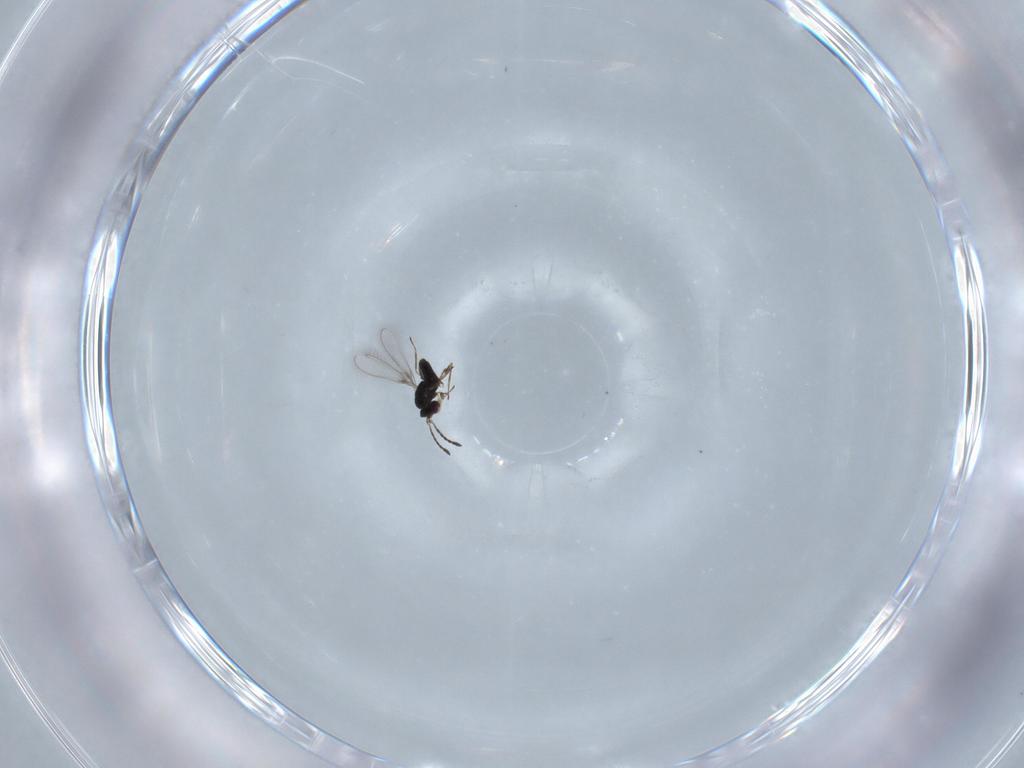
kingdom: Animalia
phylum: Arthropoda
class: Insecta
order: Hymenoptera
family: Mymaridae
